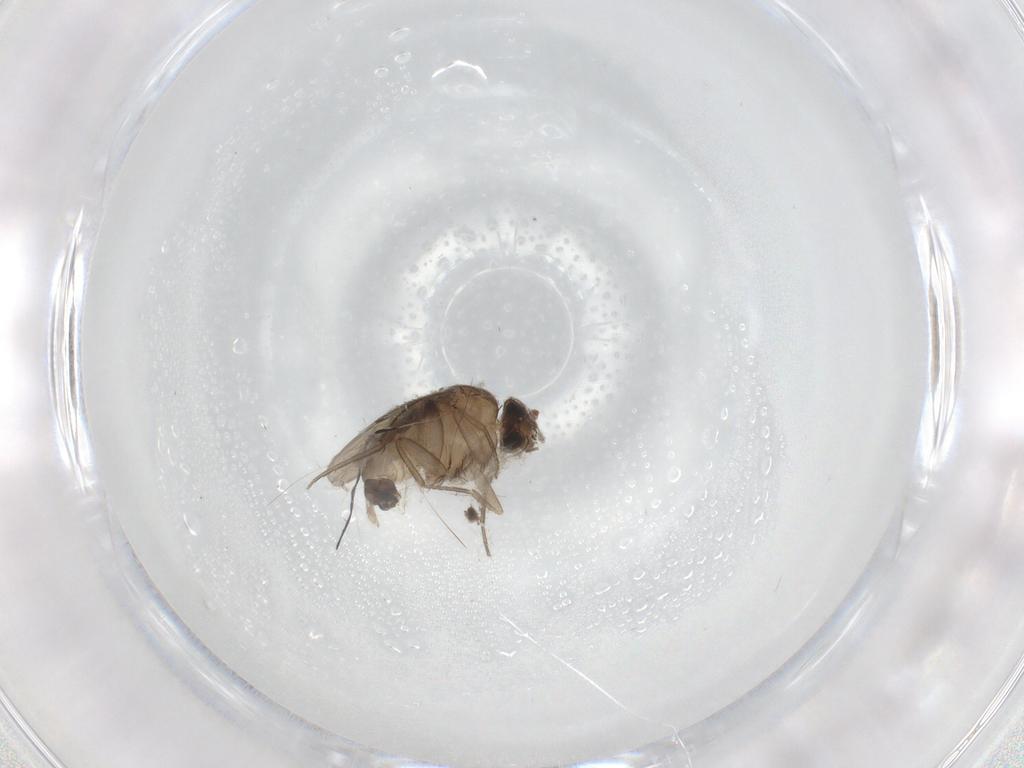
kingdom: Animalia
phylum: Arthropoda
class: Insecta
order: Diptera
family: Phoridae
